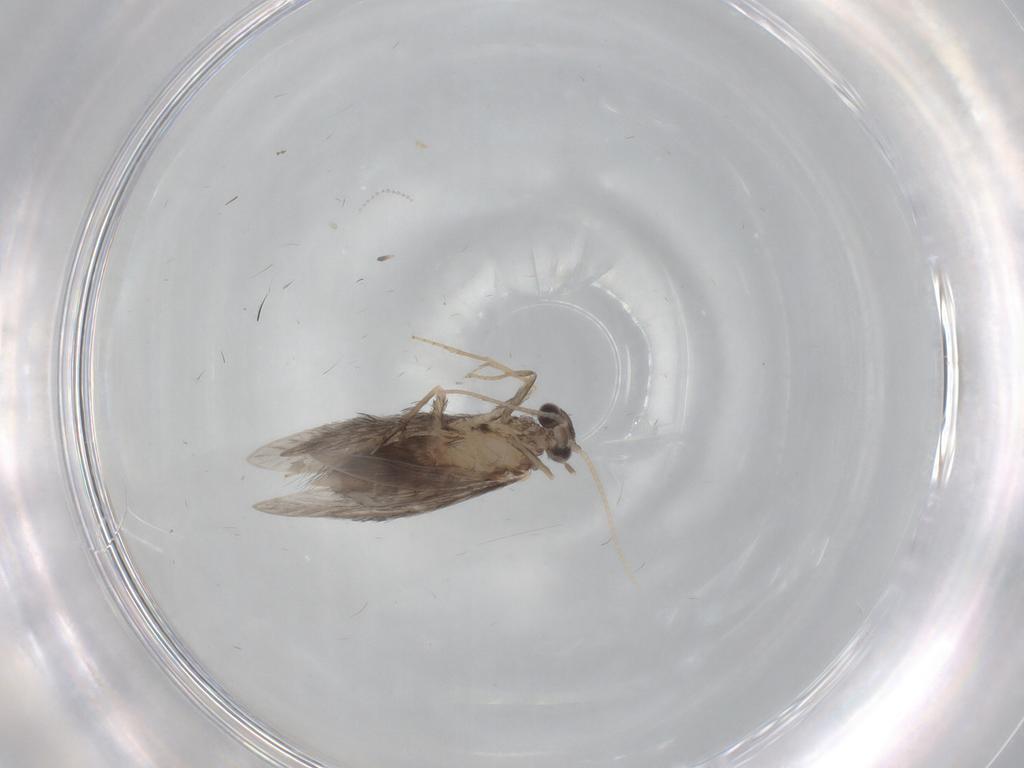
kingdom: Animalia
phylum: Arthropoda
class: Insecta
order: Trichoptera
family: Hydroptilidae
